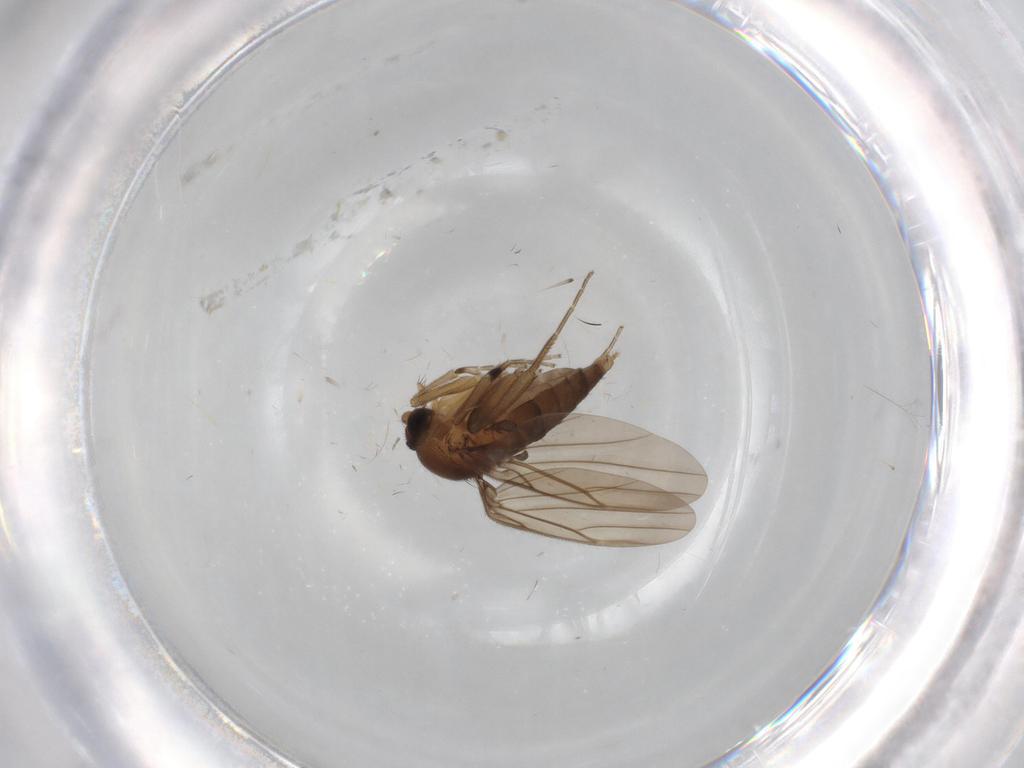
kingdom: Animalia
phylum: Arthropoda
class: Insecta
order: Diptera
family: Phoridae
